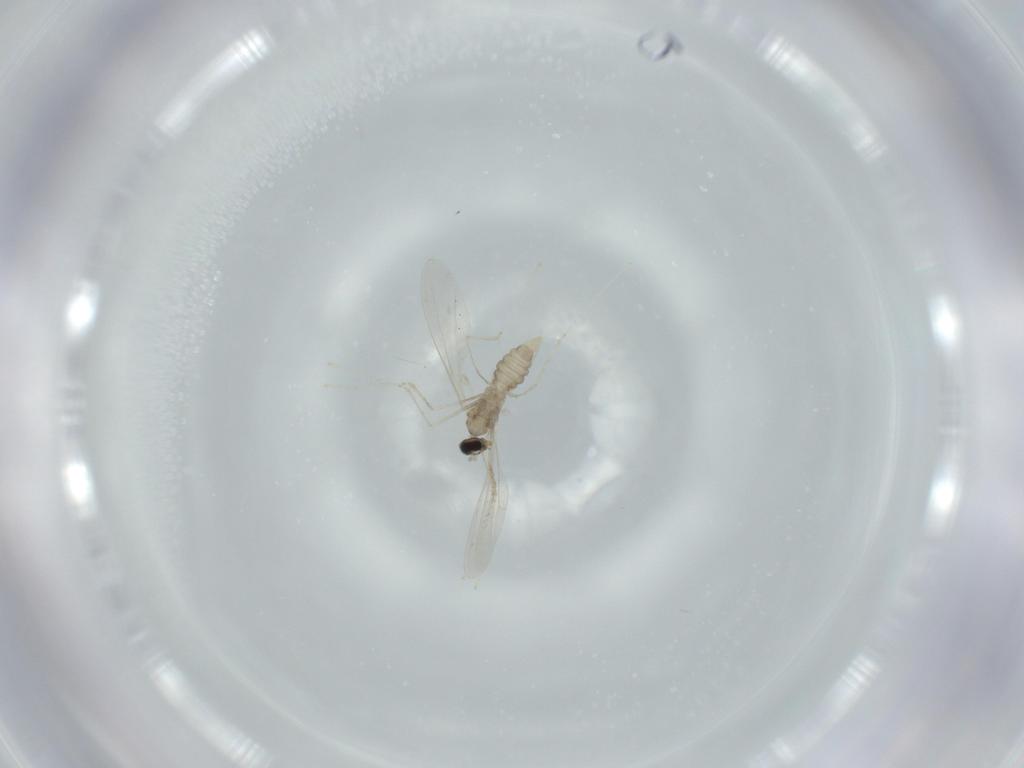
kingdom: Animalia
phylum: Arthropoda
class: Insecta
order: Diptera
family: Cecidomyiidae
